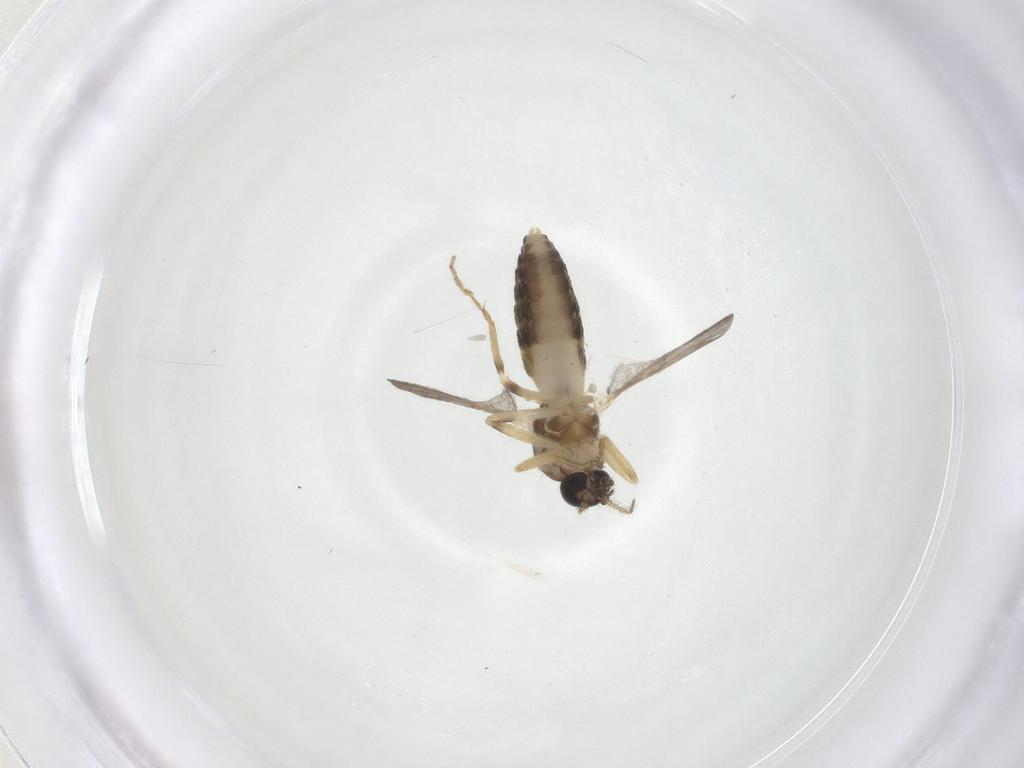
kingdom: Animalia
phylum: Arthropoda
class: Insecta
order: Diptera
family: Ceratopogonidae
